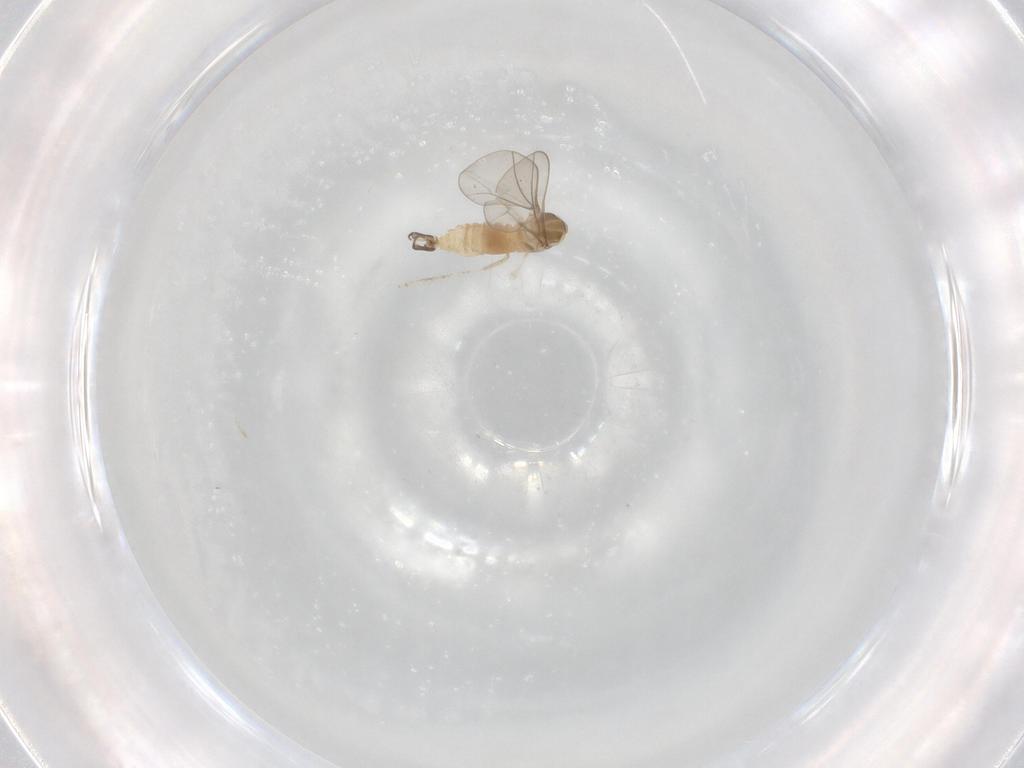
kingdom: Animalia
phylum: Arthropoda
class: Insecta
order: Diptera
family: Cecidomyiidae
